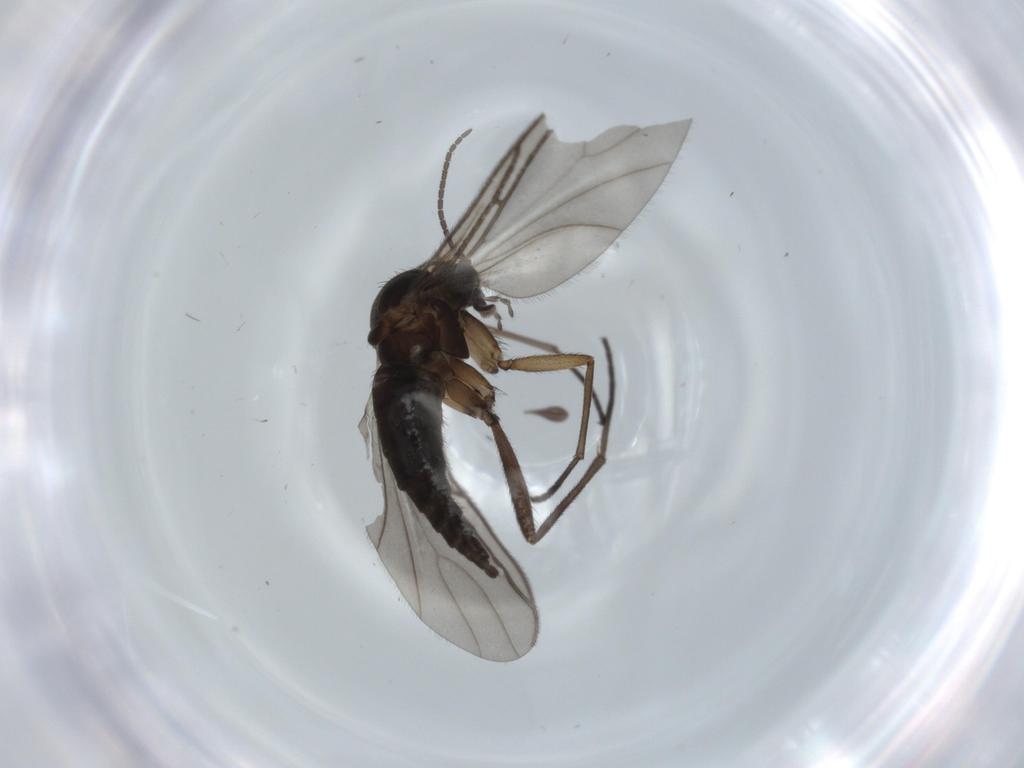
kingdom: Animalia
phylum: Arthropoda
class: Insecta
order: Diptera
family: Sciaridae
